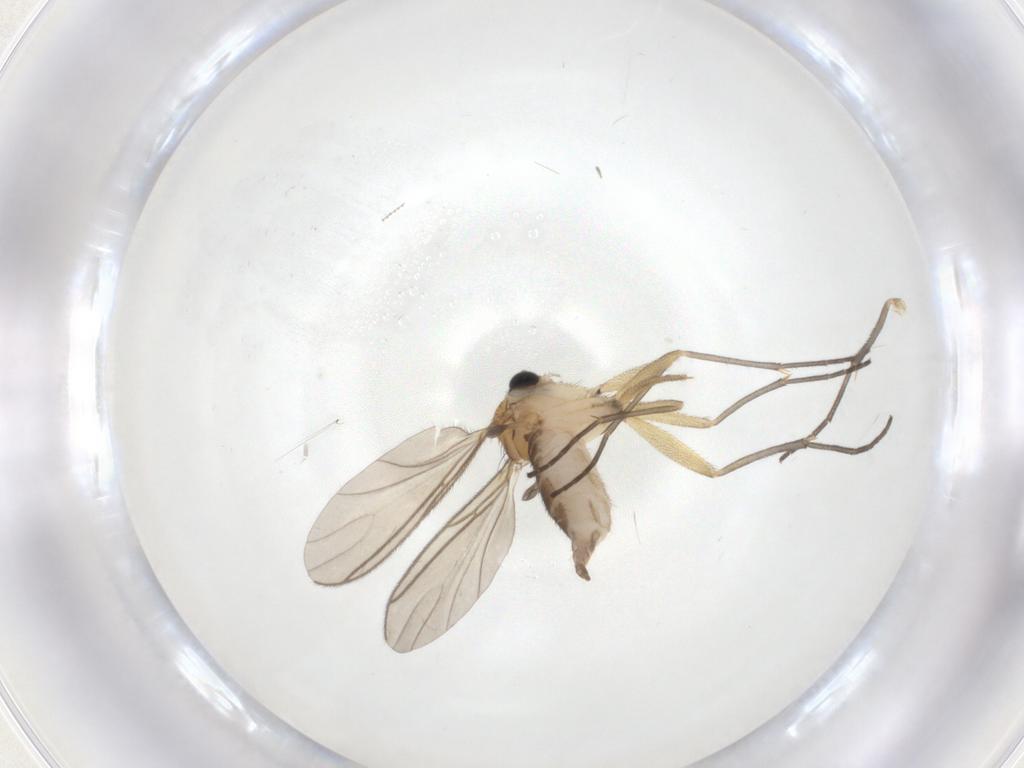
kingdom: Animalia
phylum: Arthropoda
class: Insecta
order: Diptera
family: Sciaridae
